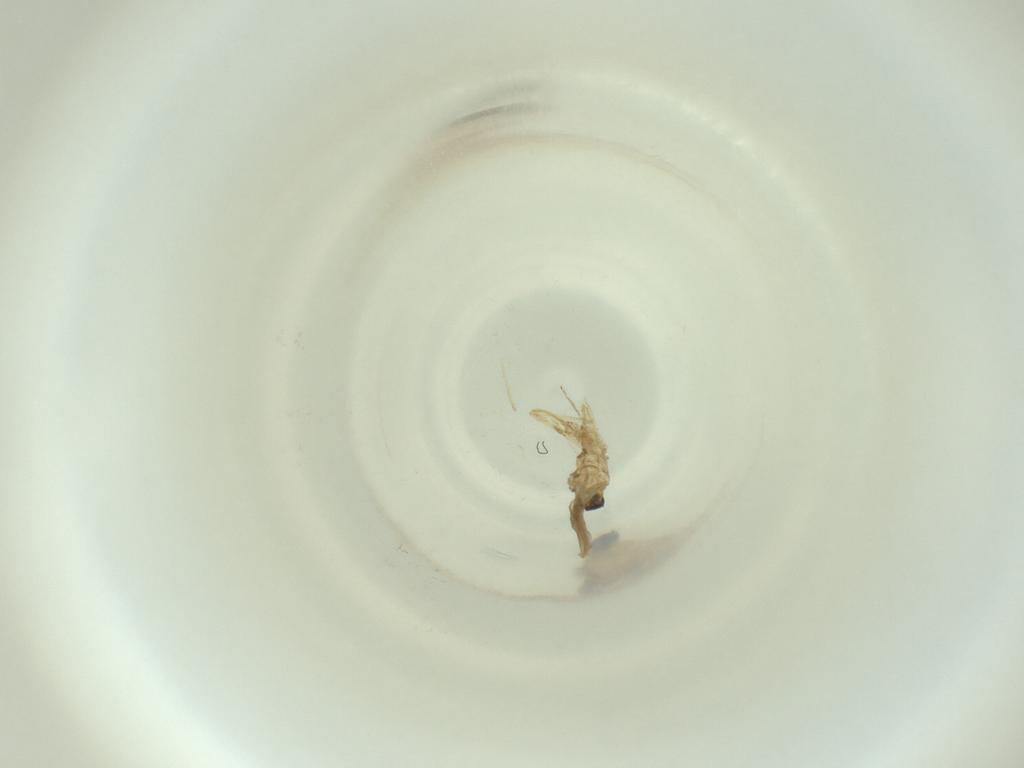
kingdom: Animalia
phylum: Arthropoda
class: Insecta
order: Diptera
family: Cecidomyiidae
